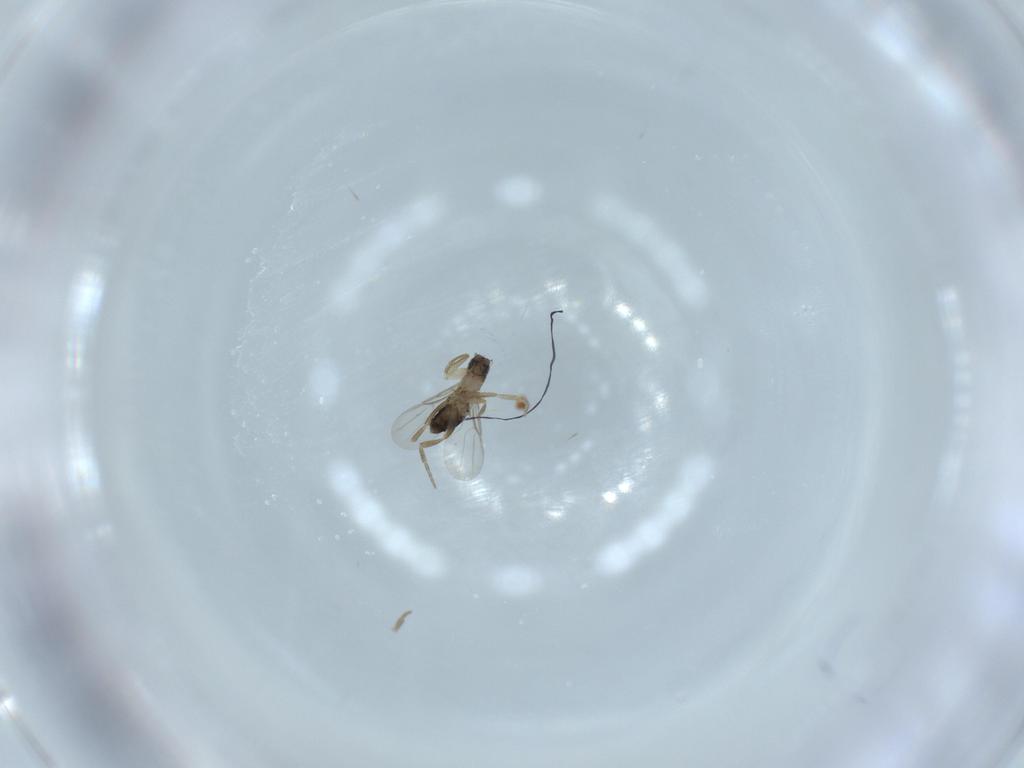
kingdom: Animalia
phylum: Arthropoda
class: Insecta
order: Diptera
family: Phoridae
